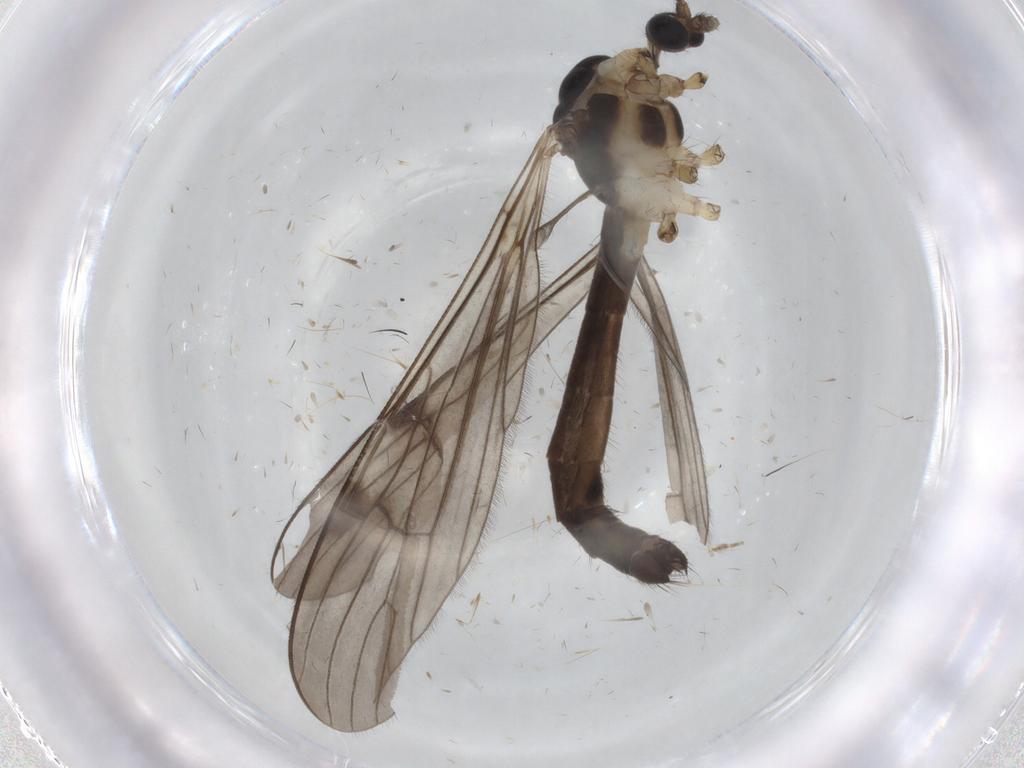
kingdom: Animalia
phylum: Arthropoda
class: Insecta
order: Diptera
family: Limoniidae
